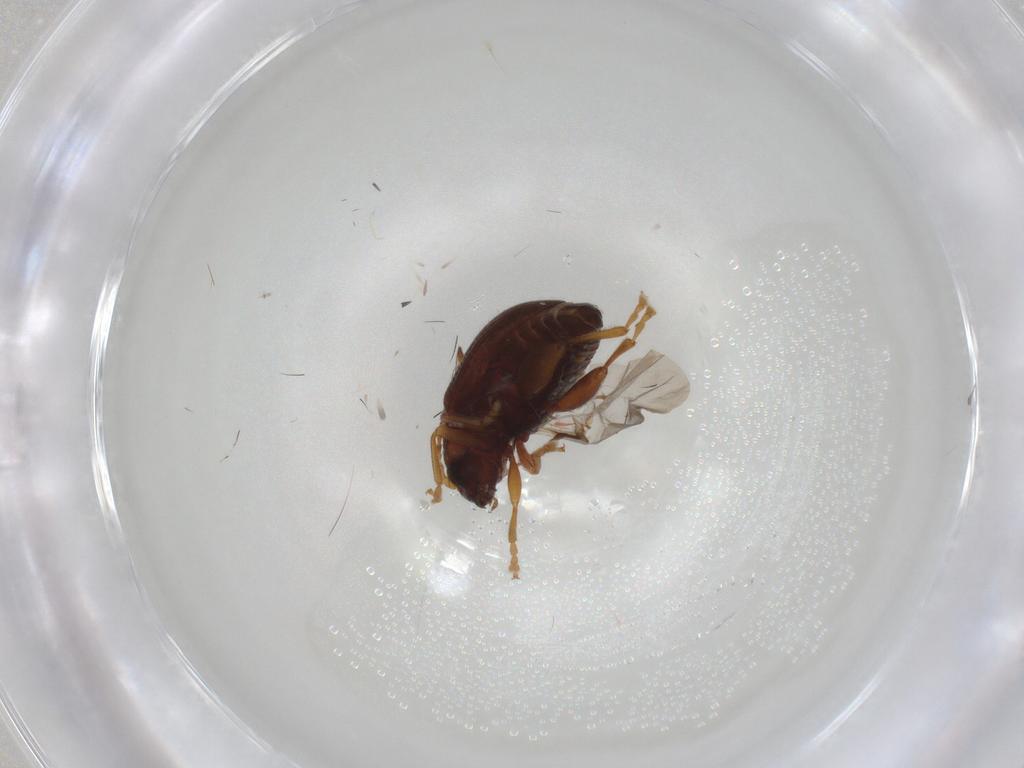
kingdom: Animalia
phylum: Arthropoda
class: Insecta
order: Coleoptera
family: Chrysomelidae
